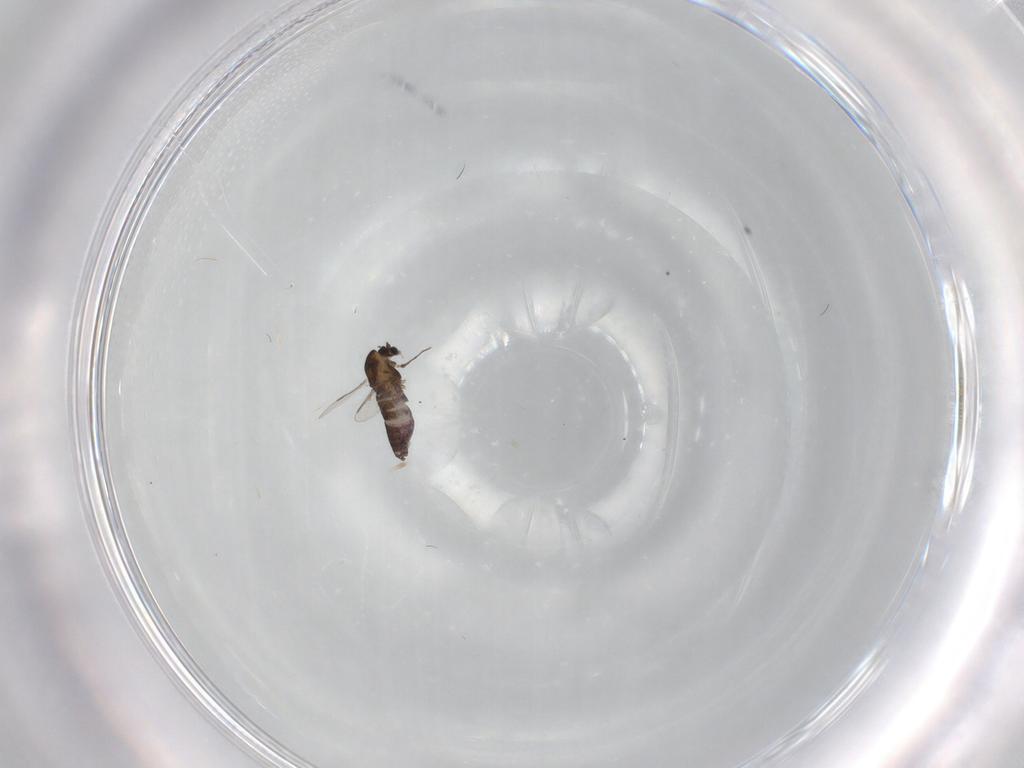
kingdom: Animalia
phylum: Arthropoda
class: Insecta
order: Diptera
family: Chironomidae
